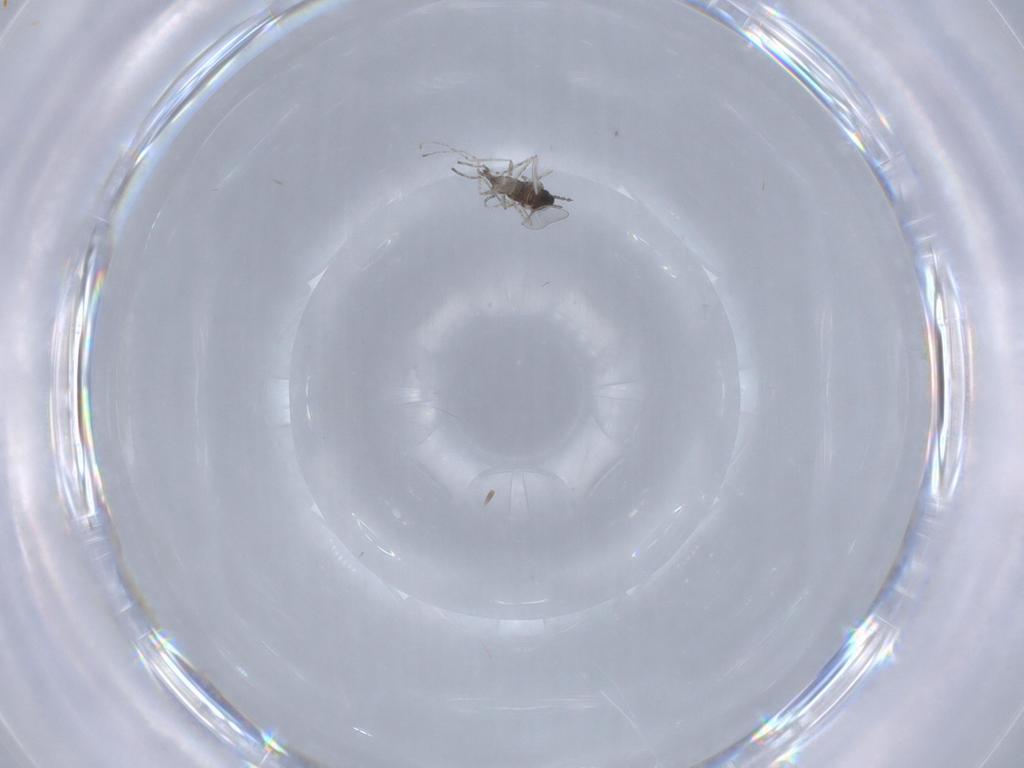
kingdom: Animalia
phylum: Arthropoda
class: Insecta
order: Diptera
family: Cecidomyiidae
